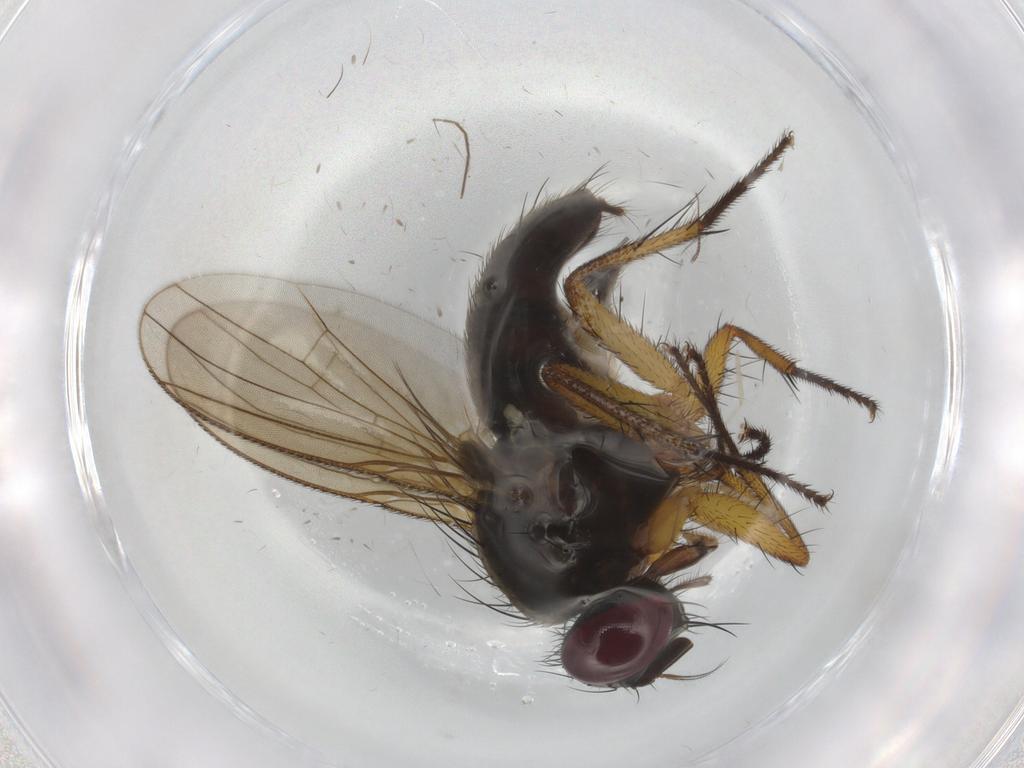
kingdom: Animalia
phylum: Arthropoda
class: Insecta
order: Diptera
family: Muscidae
